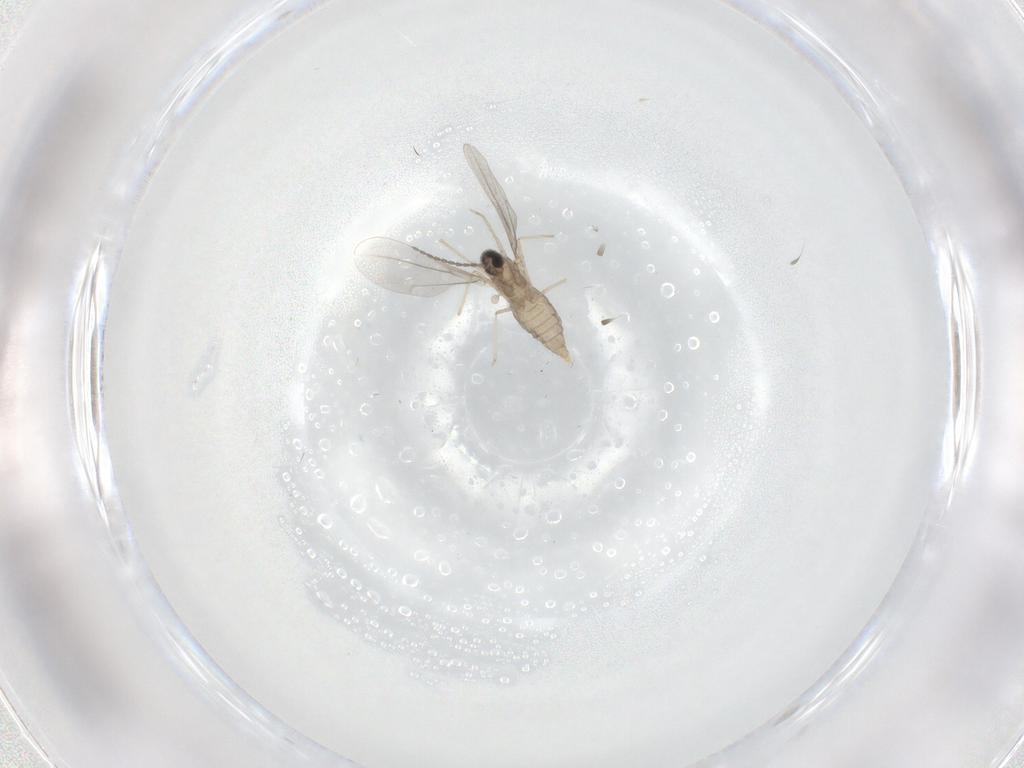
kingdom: Animalia
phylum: Arthropoda
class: Insecta
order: Diptera
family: Cecidomyiidae
